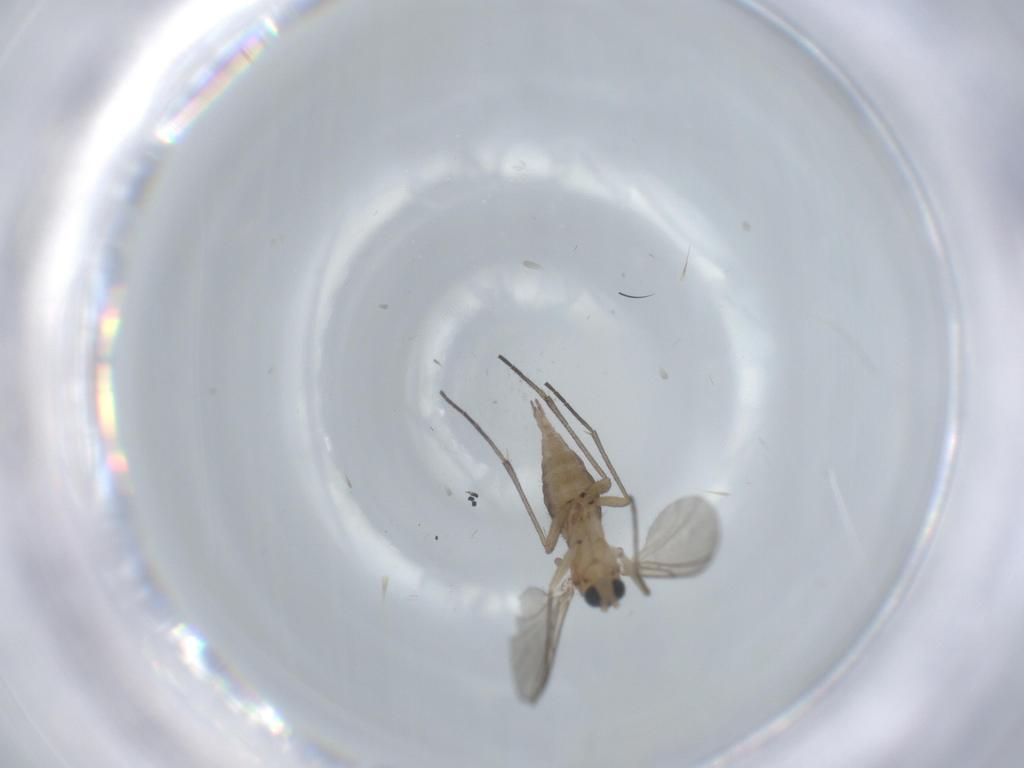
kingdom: Animalia
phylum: Arthropoda
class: Insecta
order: Diptera
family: Sciaridae
